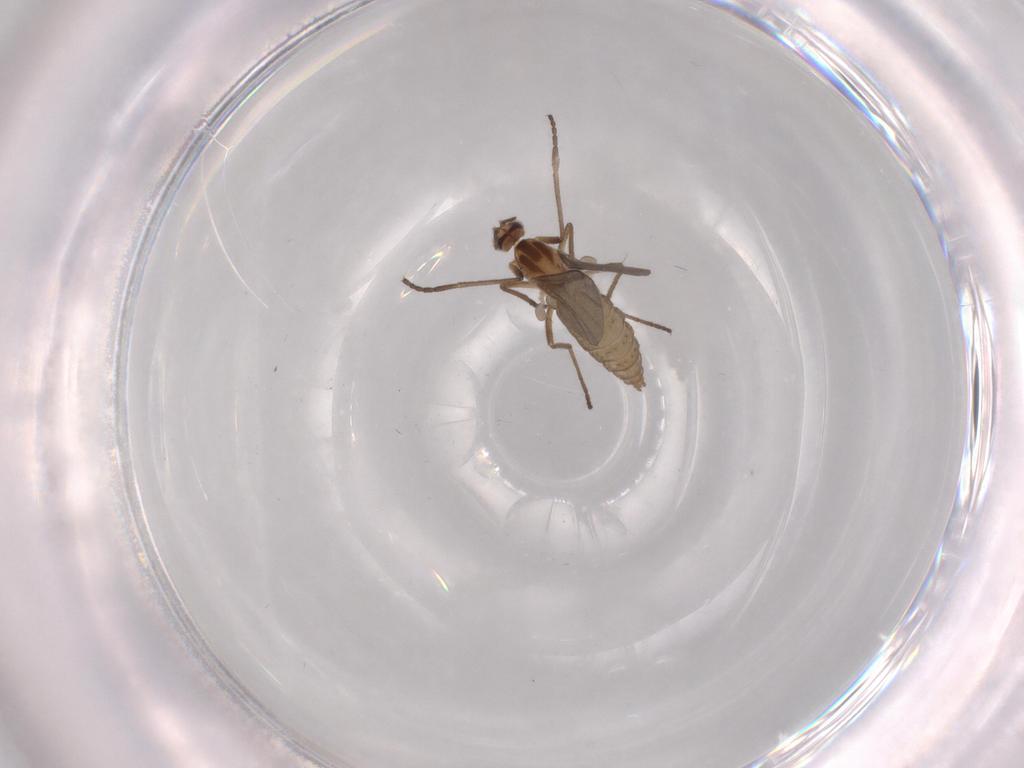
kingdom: Animalia
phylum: Arthropoda
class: Insecta
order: Diptera
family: Cecidomyiidae
